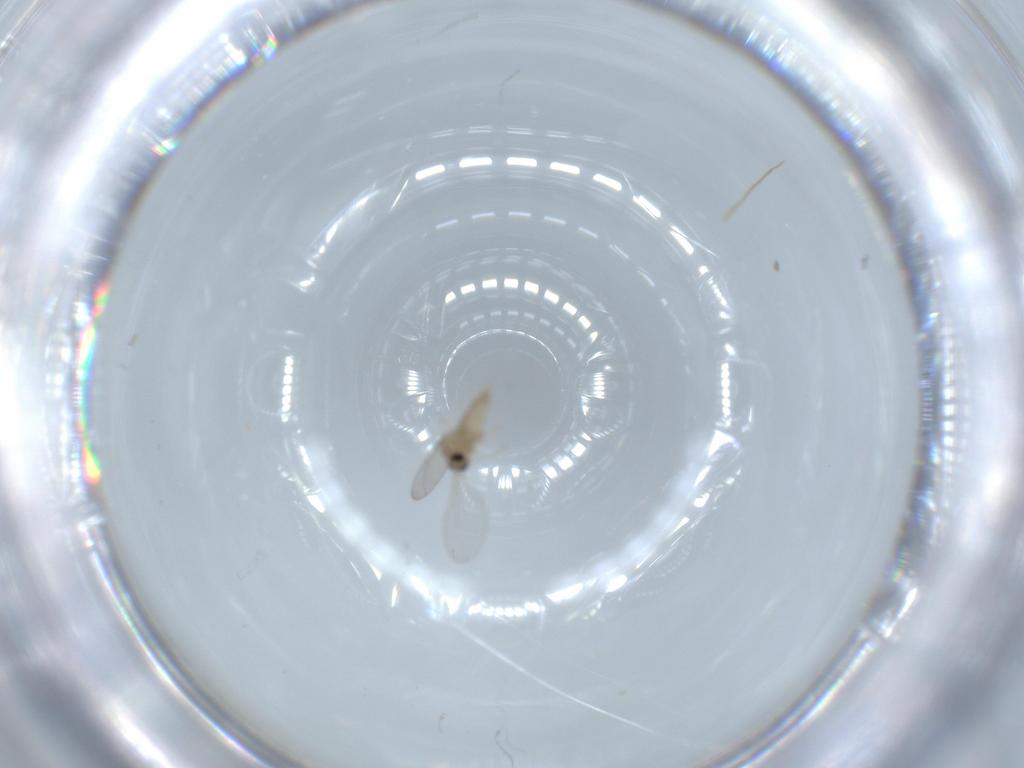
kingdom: Animalia
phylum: Arthropoda
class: Insecta
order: Diptera
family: Cecidomyiidae
